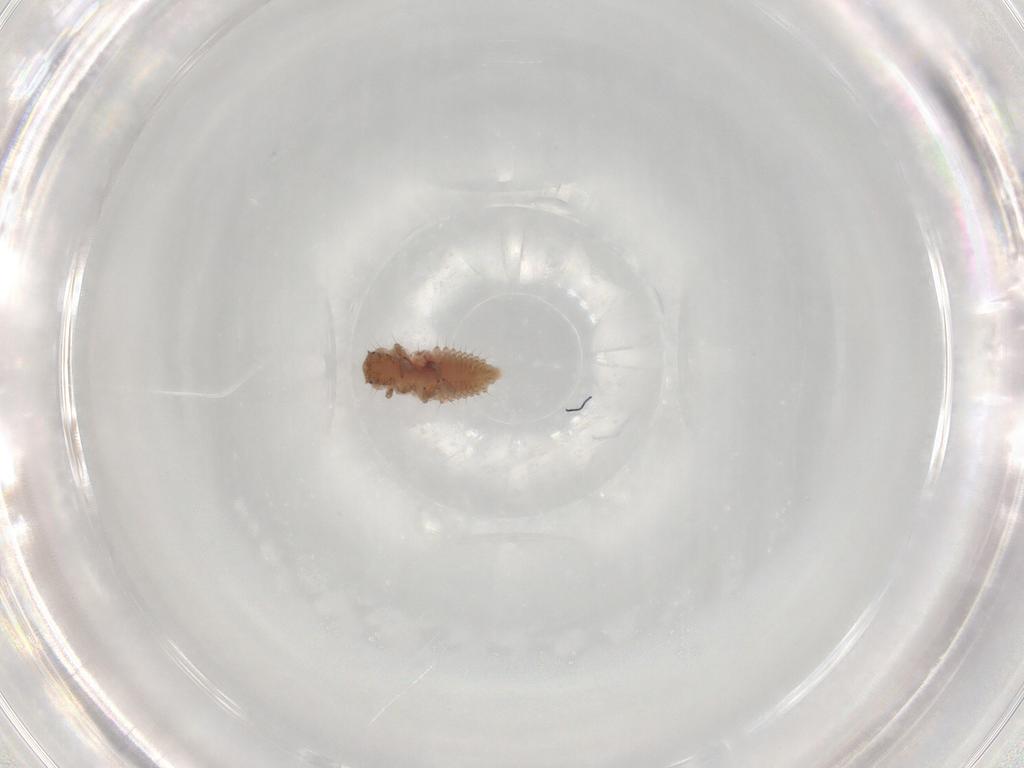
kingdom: Animalia
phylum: Arthropoda
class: Insecta
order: Coleoptera
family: Coccinellidae
